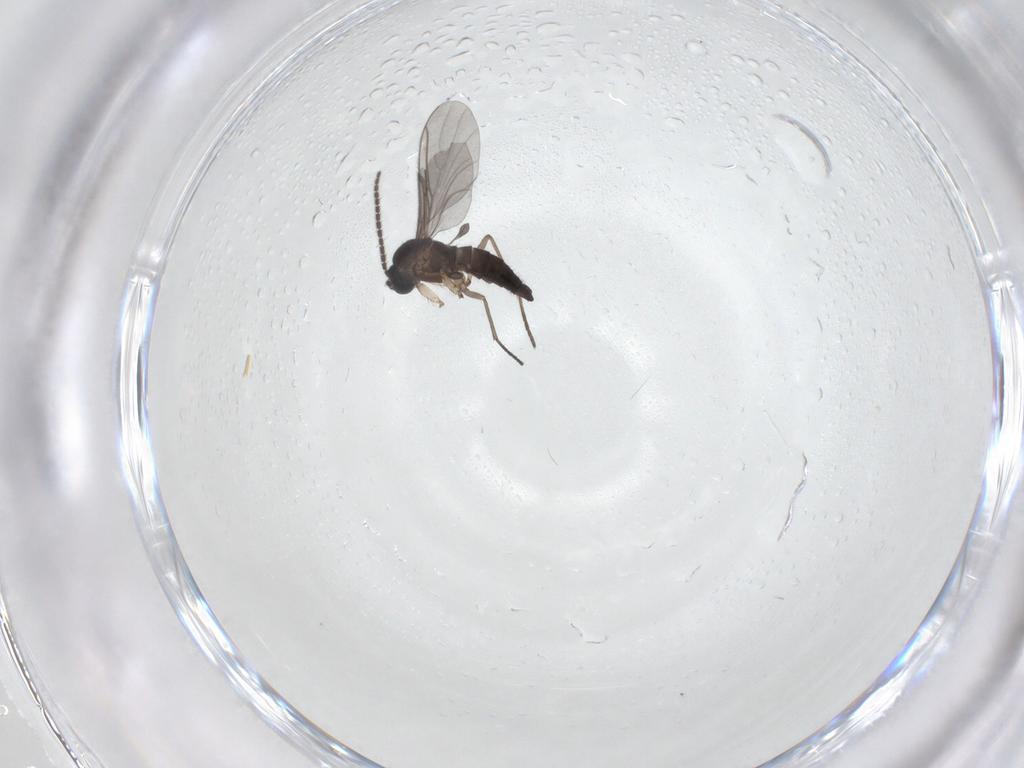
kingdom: Animalia
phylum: Arthropoda
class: Insecta
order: Diptera
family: Sciaridae
